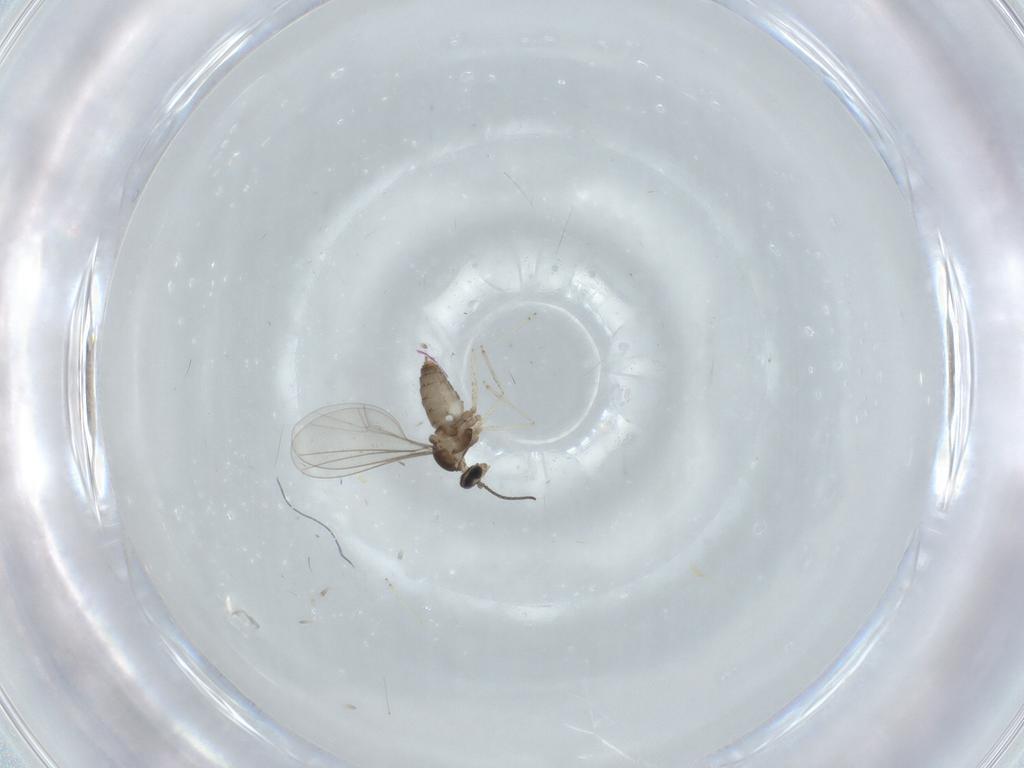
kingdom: Animalia
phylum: Arthropoda
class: Insecta
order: Diptera
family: Cecidomyiidae
